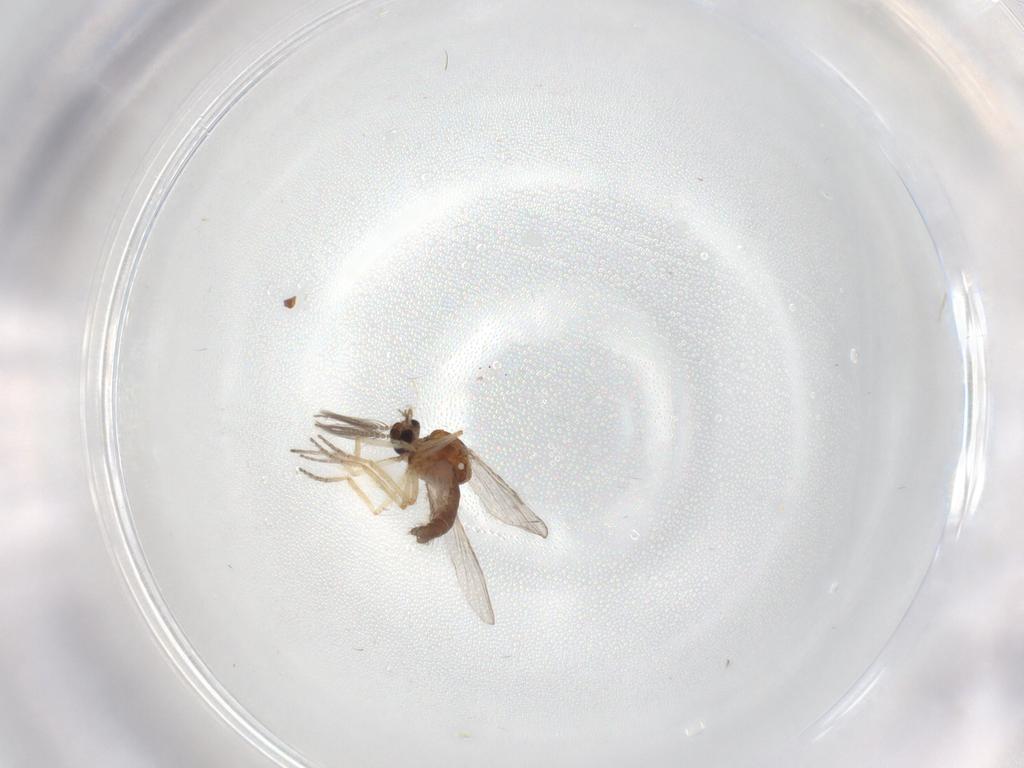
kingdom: Animalia
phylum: Arthropoda
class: Insecta
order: Diptera
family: Ceratopogonidae
